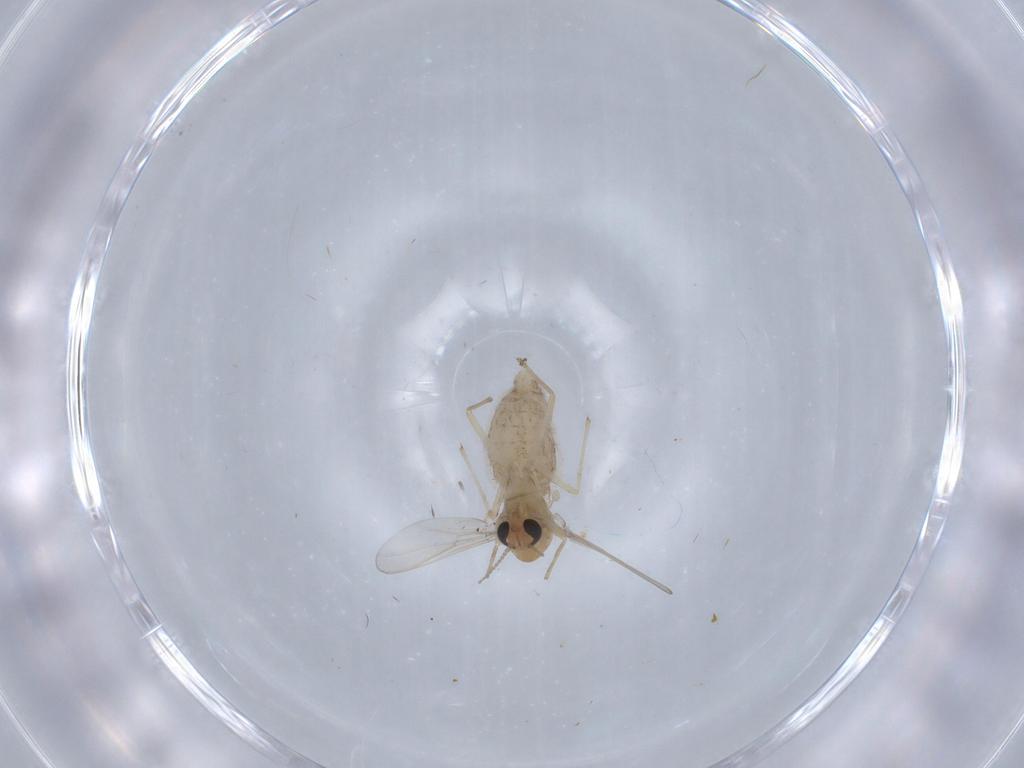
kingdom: Animalia
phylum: Arthropoda
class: Insecta
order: Diptera
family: Chironomidae
